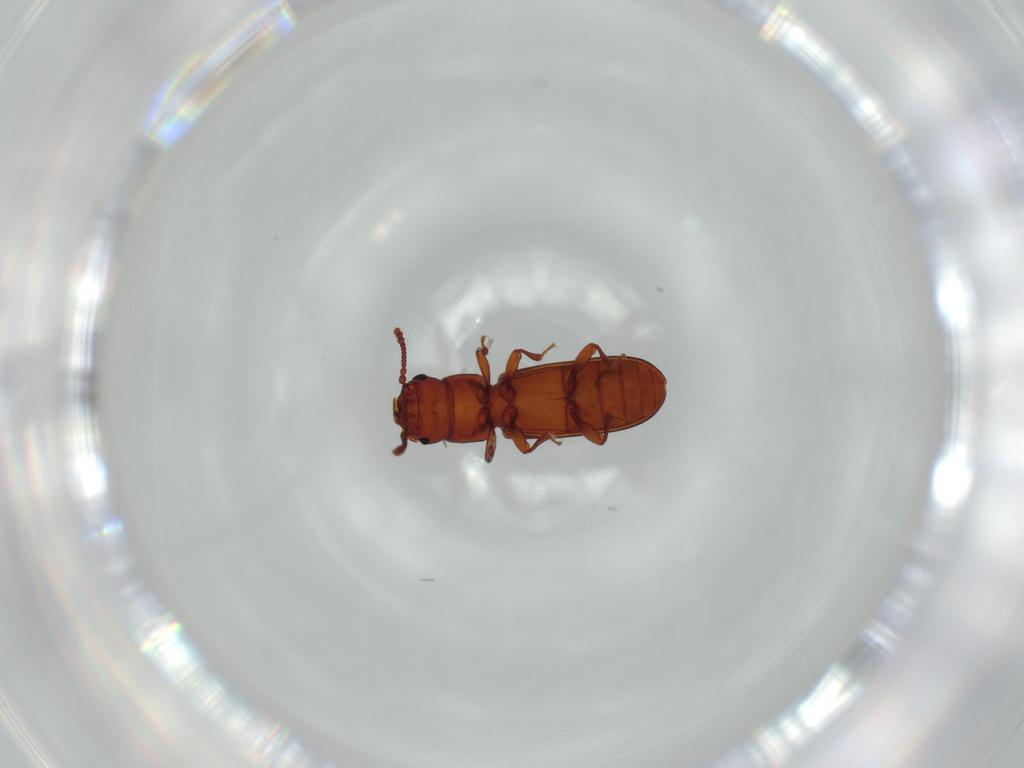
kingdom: Animalia
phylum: Arthropoda
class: Insecta
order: Coleoptera
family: Salpingidae
